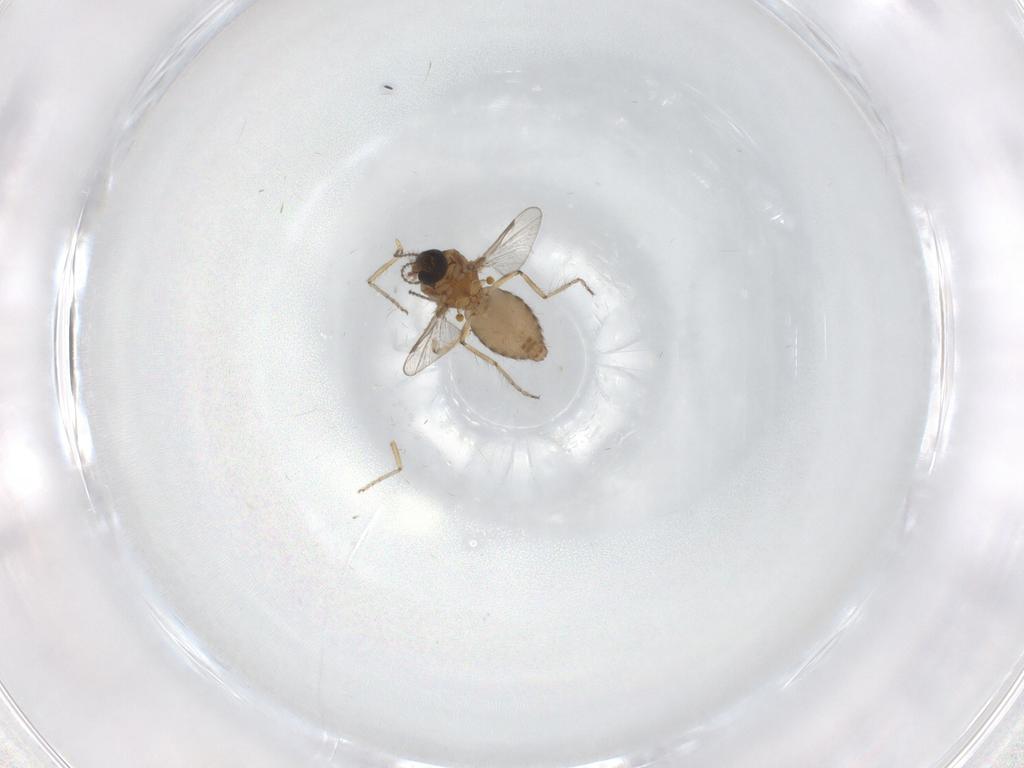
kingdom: Animalia
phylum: Arthropoda
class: Insecta
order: Diptera
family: Ceratopogonidae
